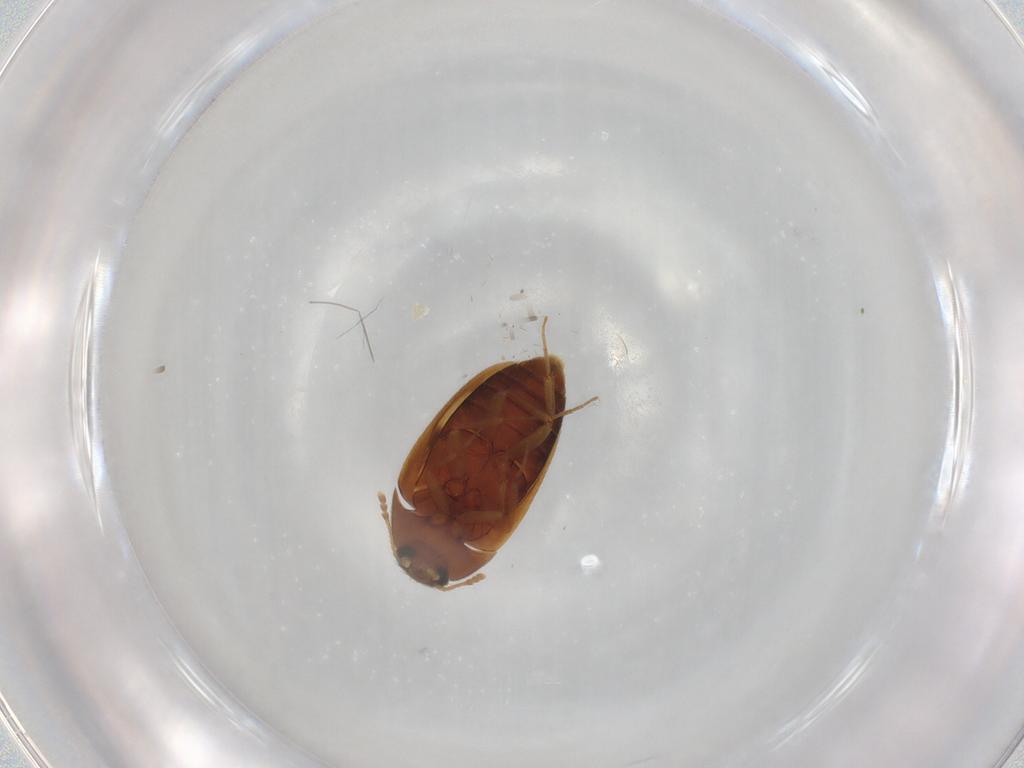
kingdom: Animalia
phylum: Arthropoda
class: Insecta
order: Coleoptera
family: Mycetophagidae
